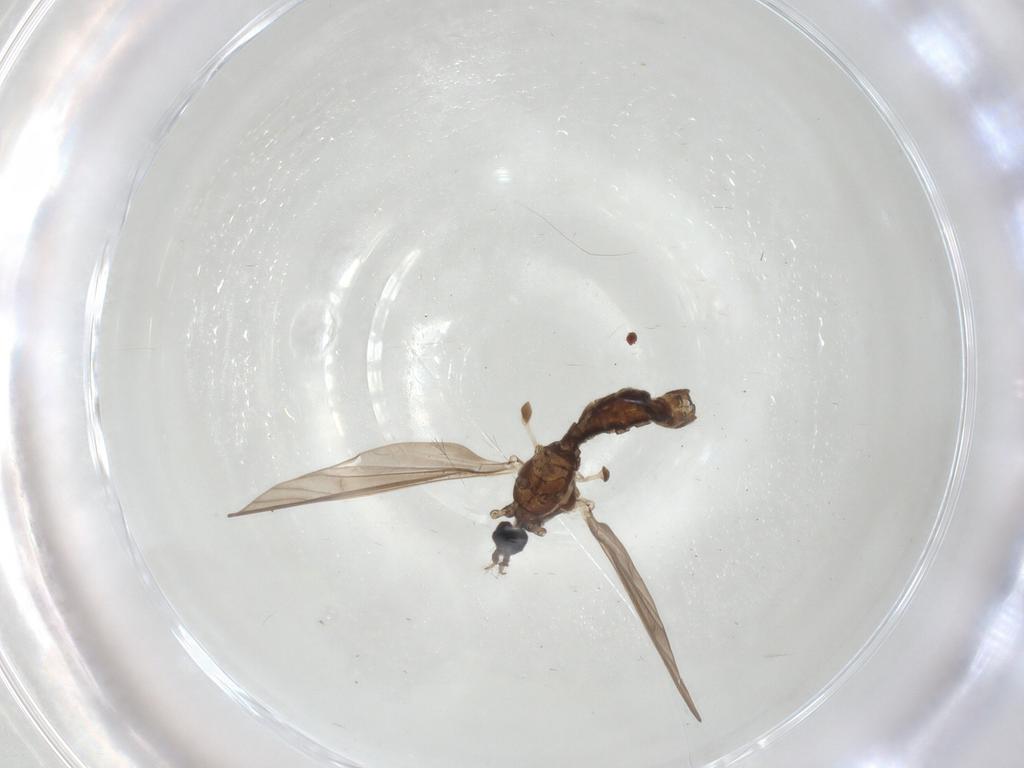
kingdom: Animalia
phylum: Arthropoda
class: Insecta
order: Diptera
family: Limoniidae
